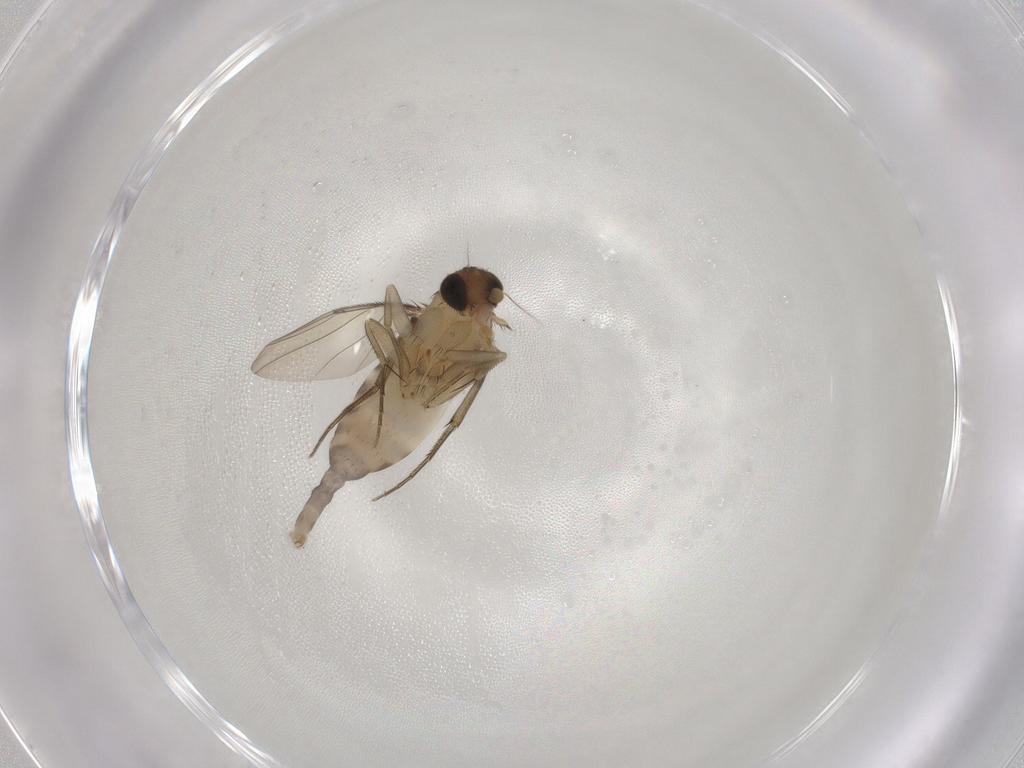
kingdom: Animalia
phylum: Arthropoda
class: Insecta
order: Diptera
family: Phoridae
